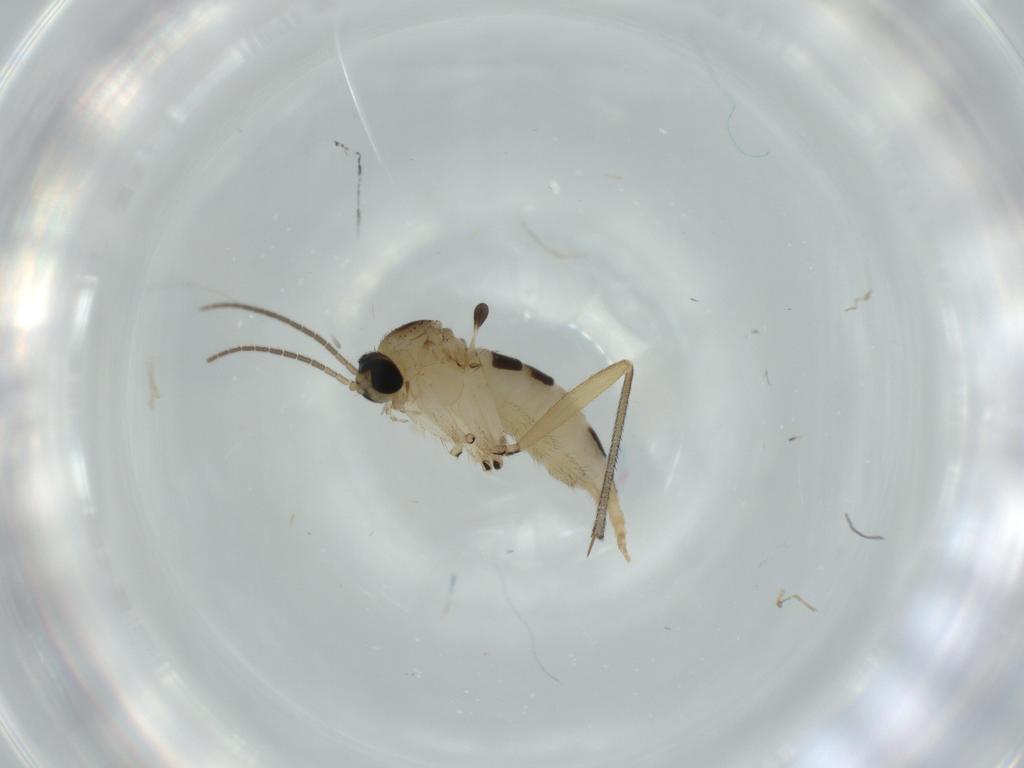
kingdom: Animalia
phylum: Arthropoda
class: Insecta
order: Diptera
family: Sciaridae
